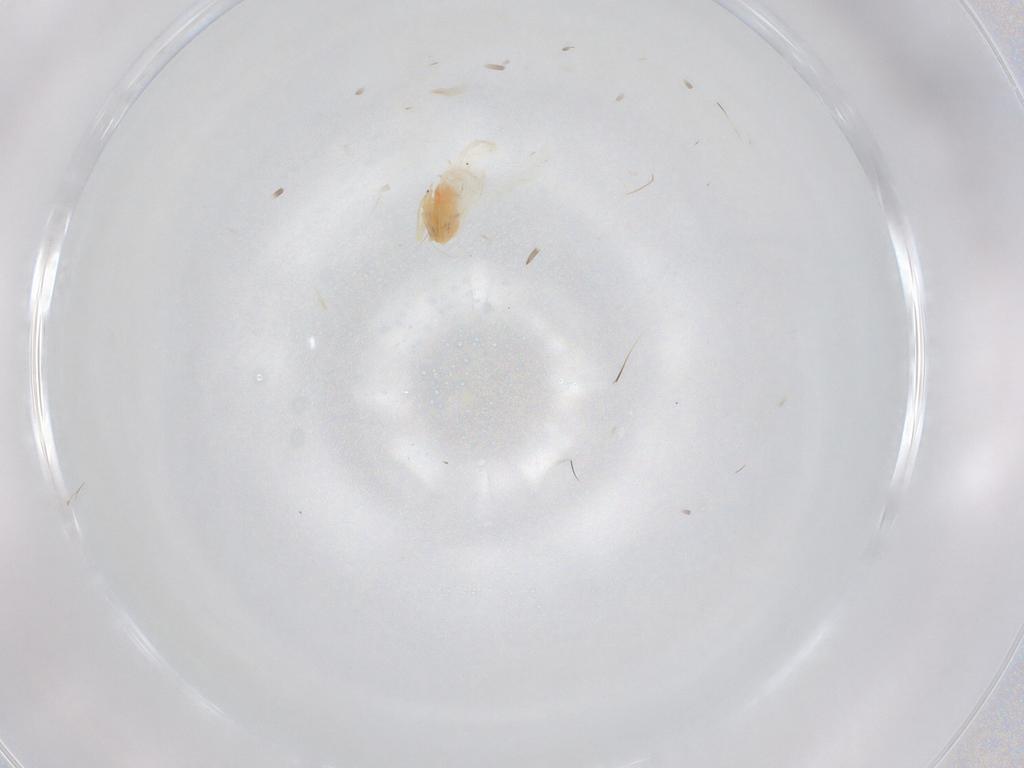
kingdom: Animalia
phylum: Arthropoda
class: Insecta
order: Hemiptera
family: Aleyrodidae
